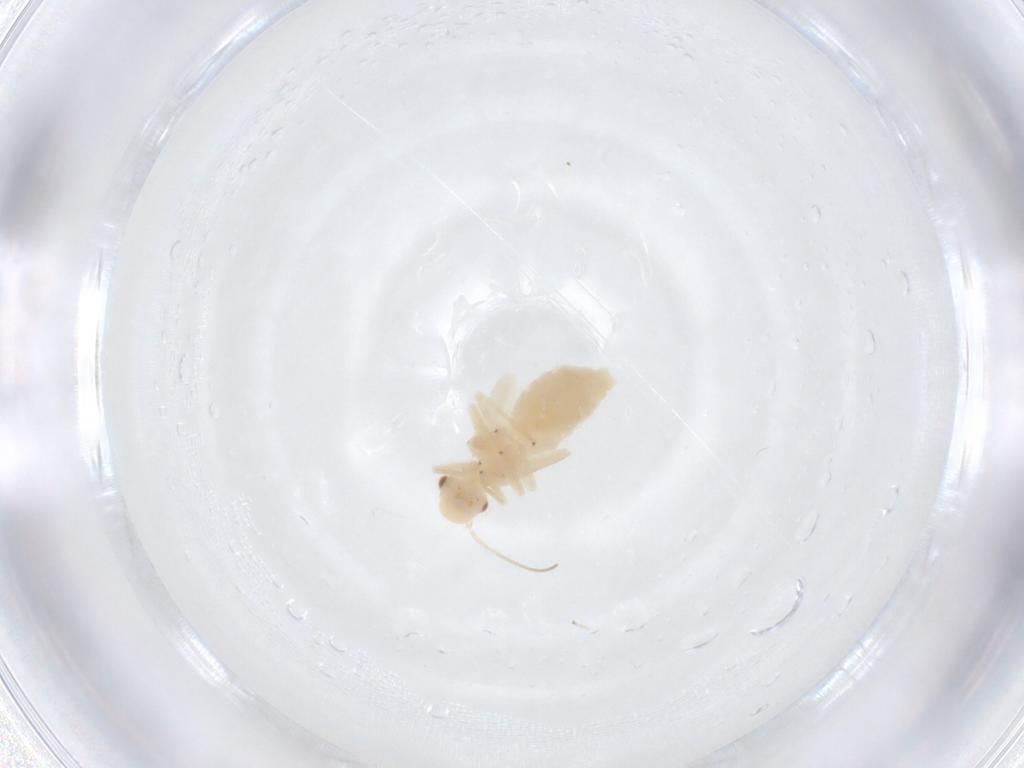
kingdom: Animalia
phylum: Arthropoda
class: Insecta
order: Psocodea
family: Caeciliusidae
